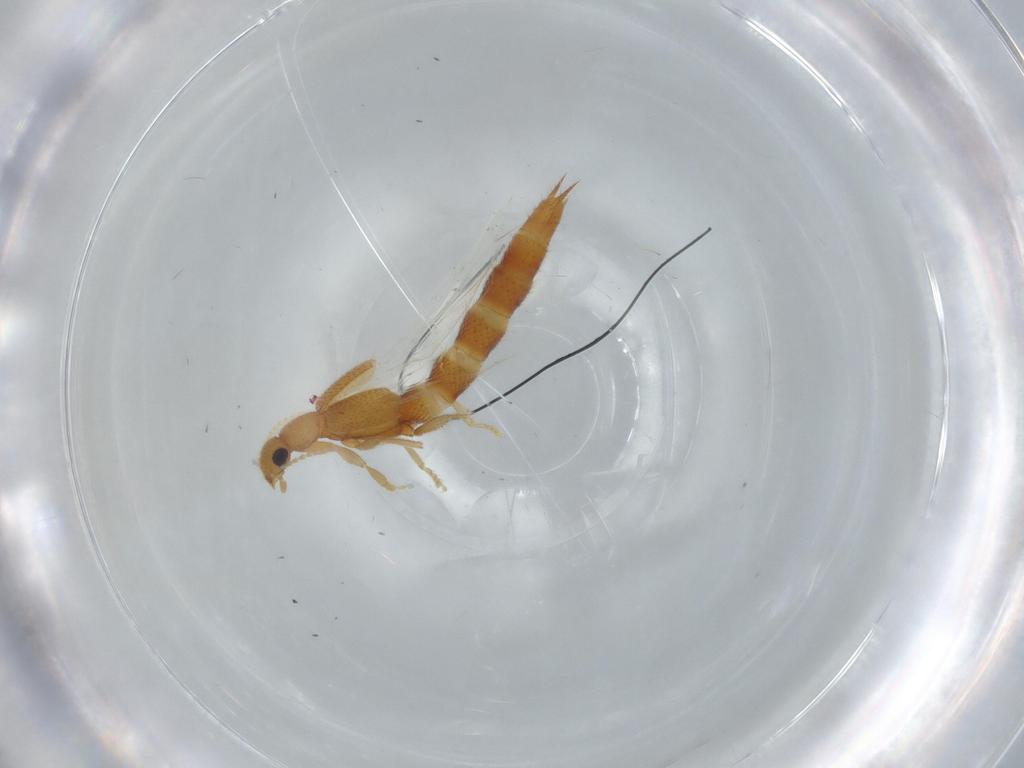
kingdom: Animalia
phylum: Arthropoda
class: Insecta
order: Coleoptera
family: Staphylinidae
